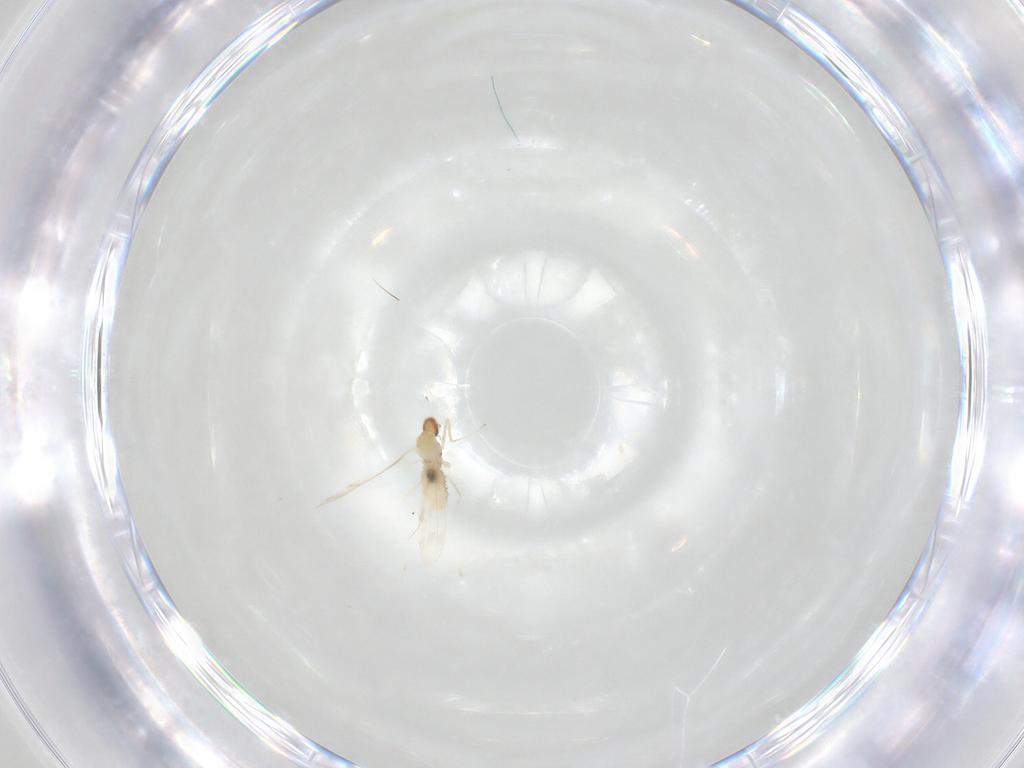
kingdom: Animalia
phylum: Arthropoda
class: Insecta
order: Diptera
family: Cecidomyiidae
